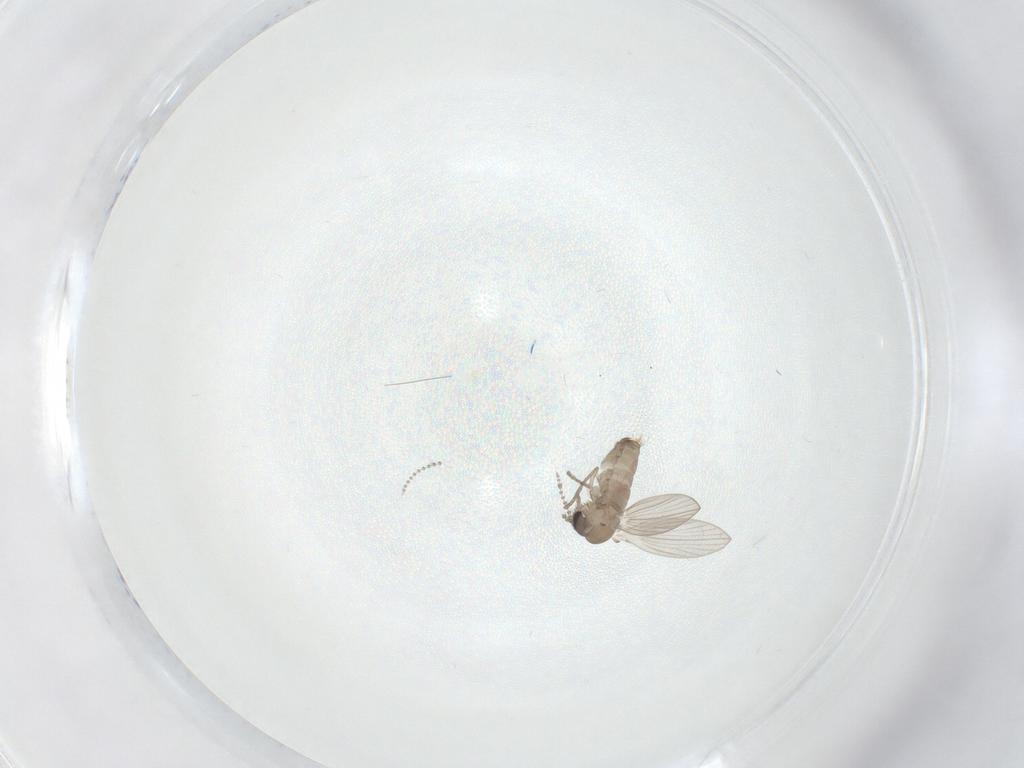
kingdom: Animalia
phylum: Arthropoda
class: Insecta
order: Diptera
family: Psychodidae
